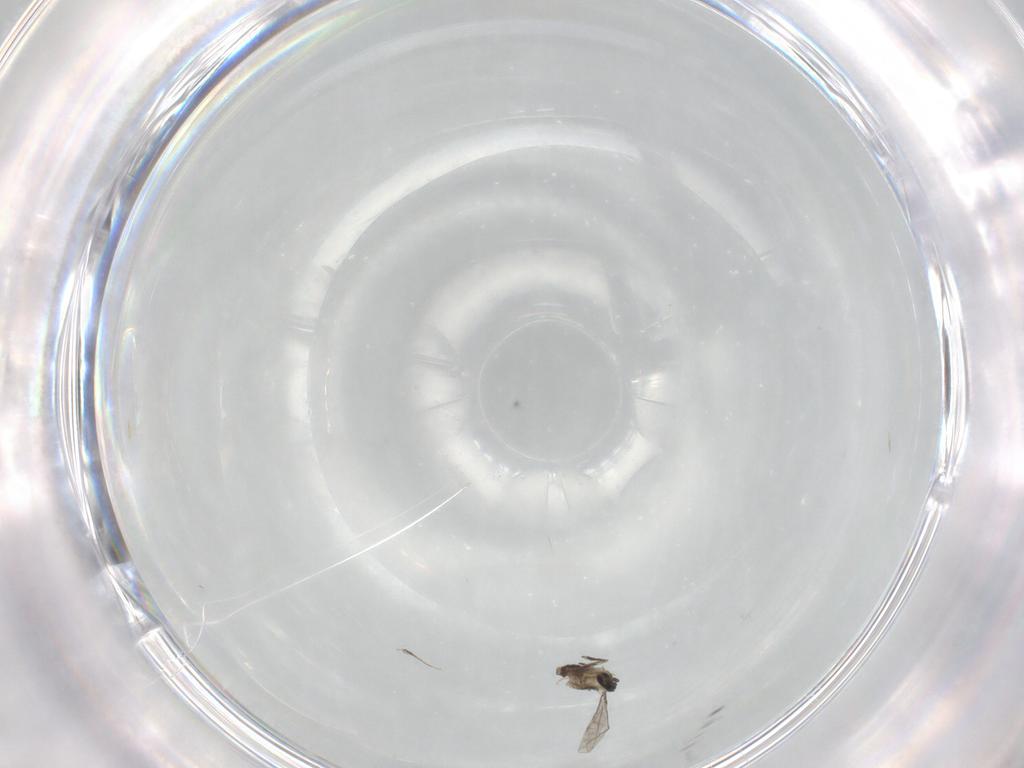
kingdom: Animalia
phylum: Arthropoda
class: Insecta
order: Diptera
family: Cecidomyiidae
